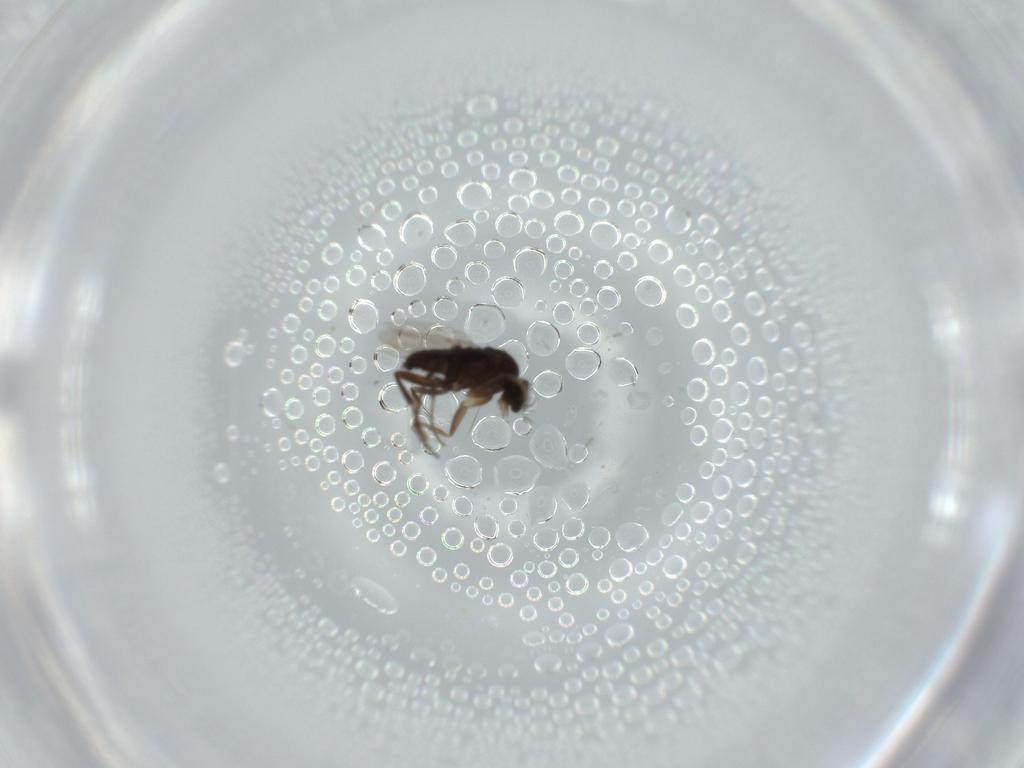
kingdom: Animalia
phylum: Arthropoda
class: Insecta
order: Diptera
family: Phoridae
